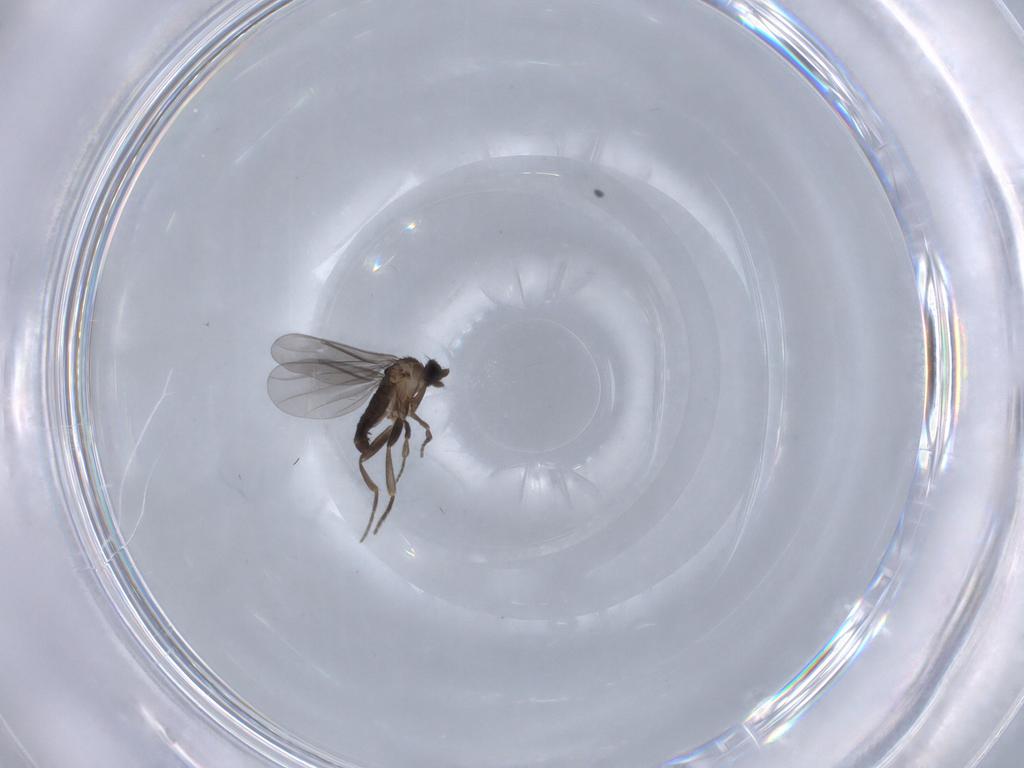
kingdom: Animalia
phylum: Arthropoda
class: Insecta
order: Diptera
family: Phoridae
